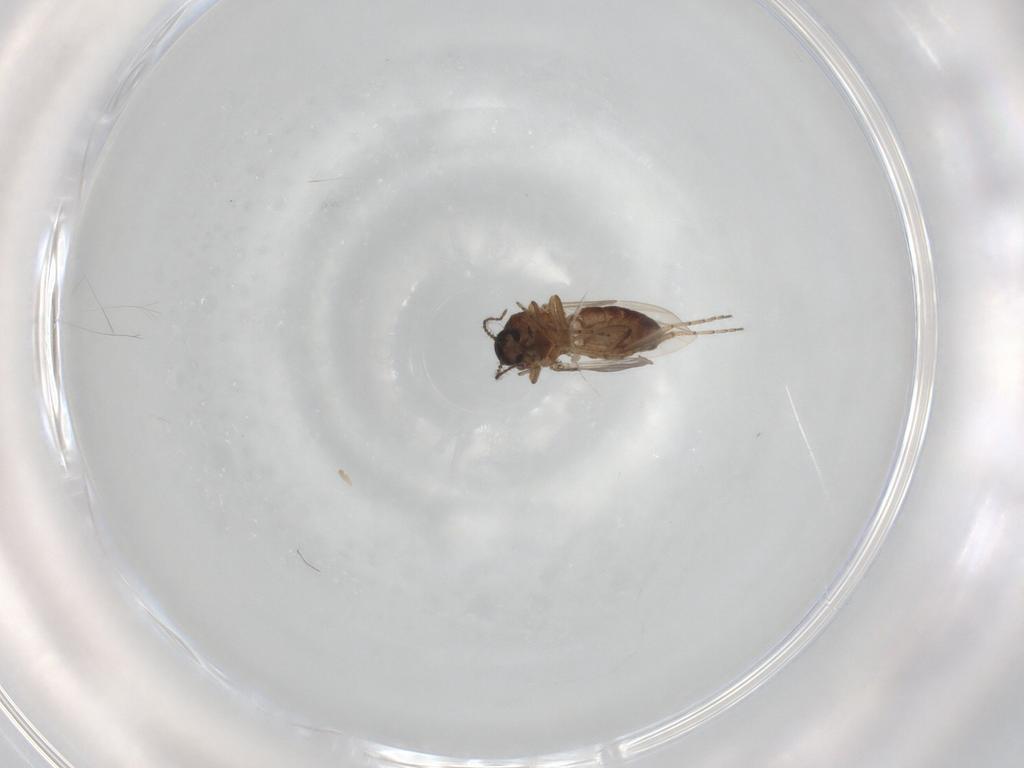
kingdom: Animalia
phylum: Arthropoda
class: Insecta
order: Diptera
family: Ceratopogonidae
